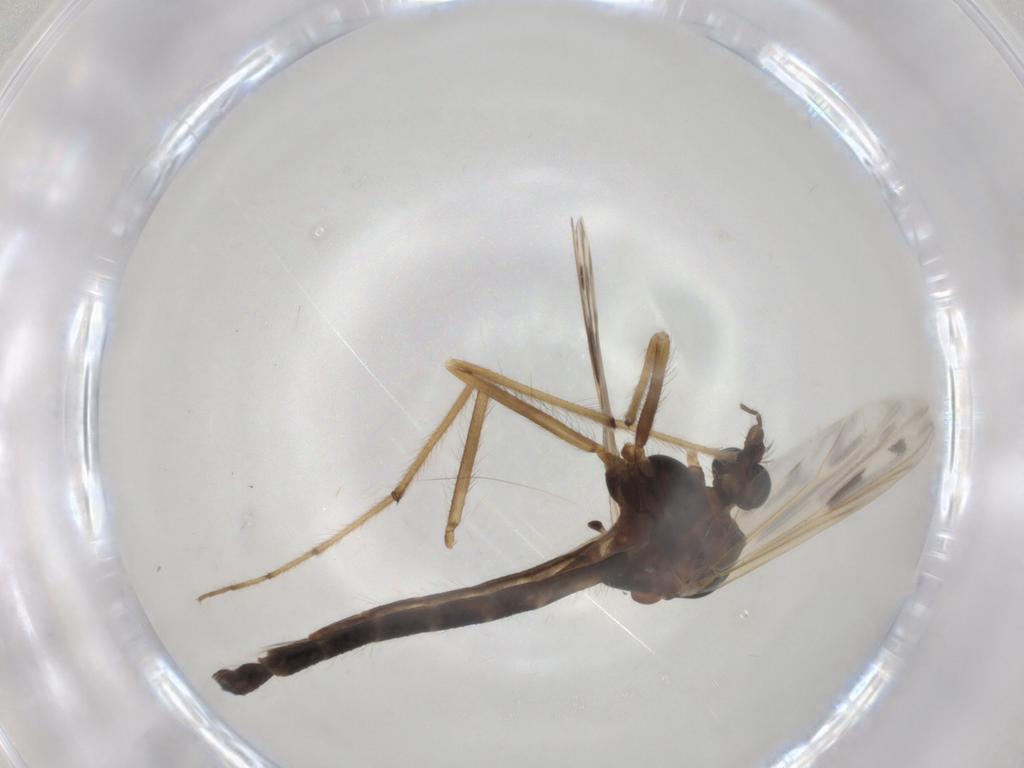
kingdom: Animalia
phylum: Arthropoda
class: Insecta
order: Diptera
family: Chironomidae
